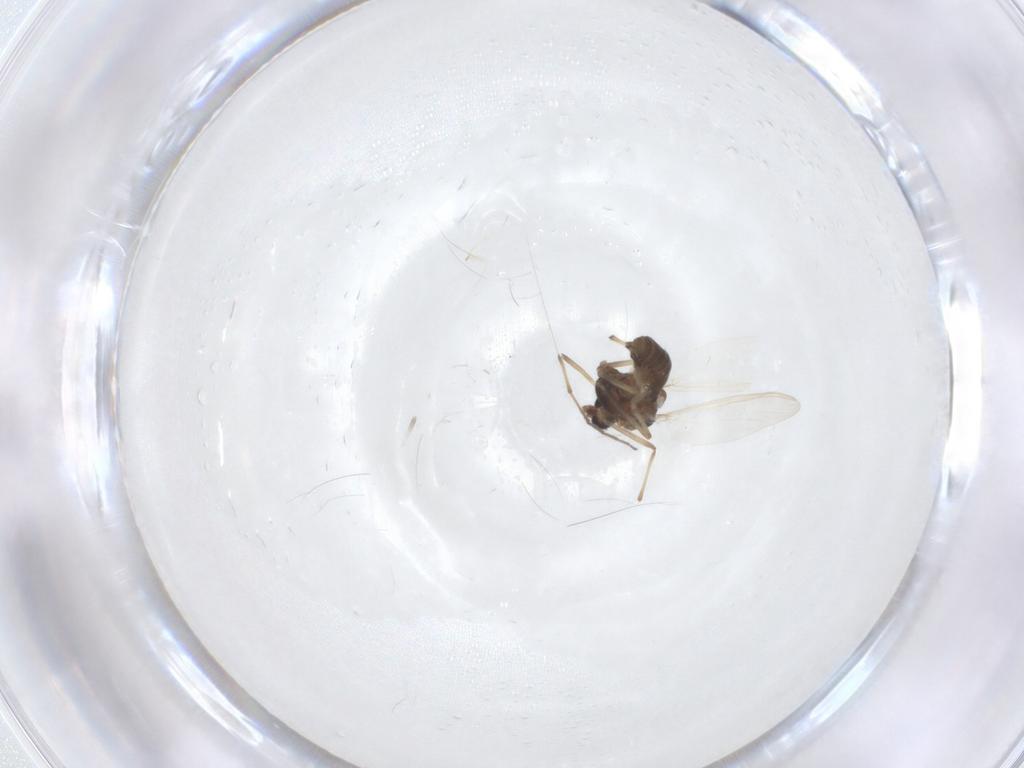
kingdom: Animalia
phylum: Arthropoda
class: Insecta
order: Diptera
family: Chironomidae
